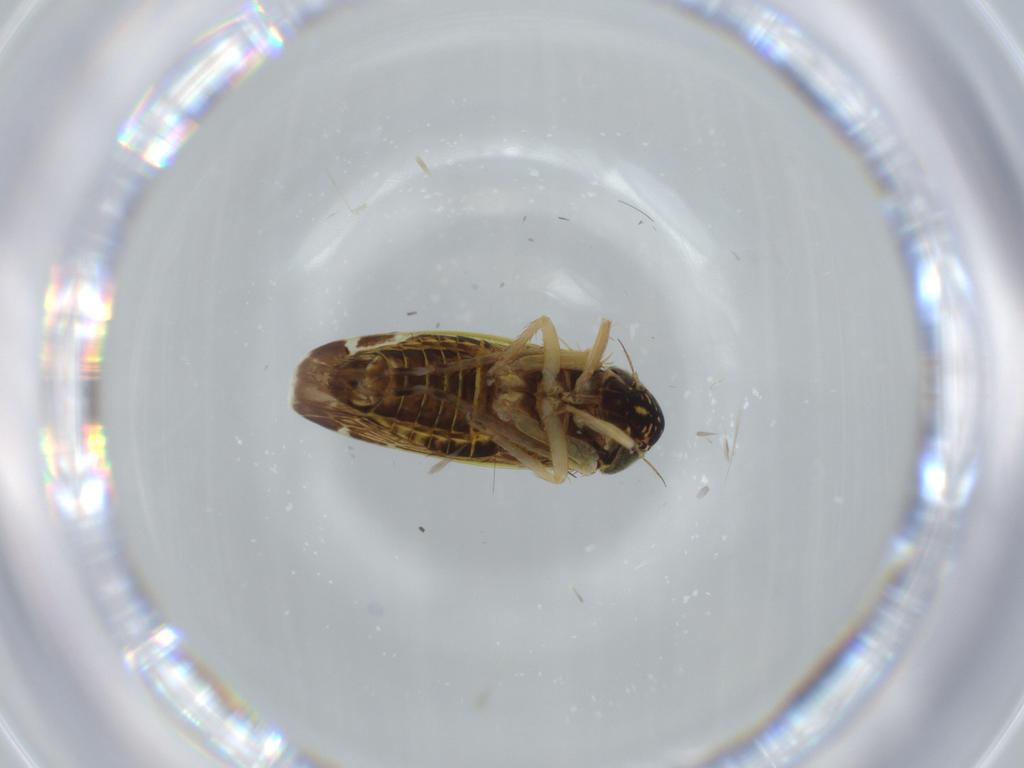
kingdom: Animalia
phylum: Arthropoda
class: Insecta
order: Hemiptera
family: Cicadellidae
